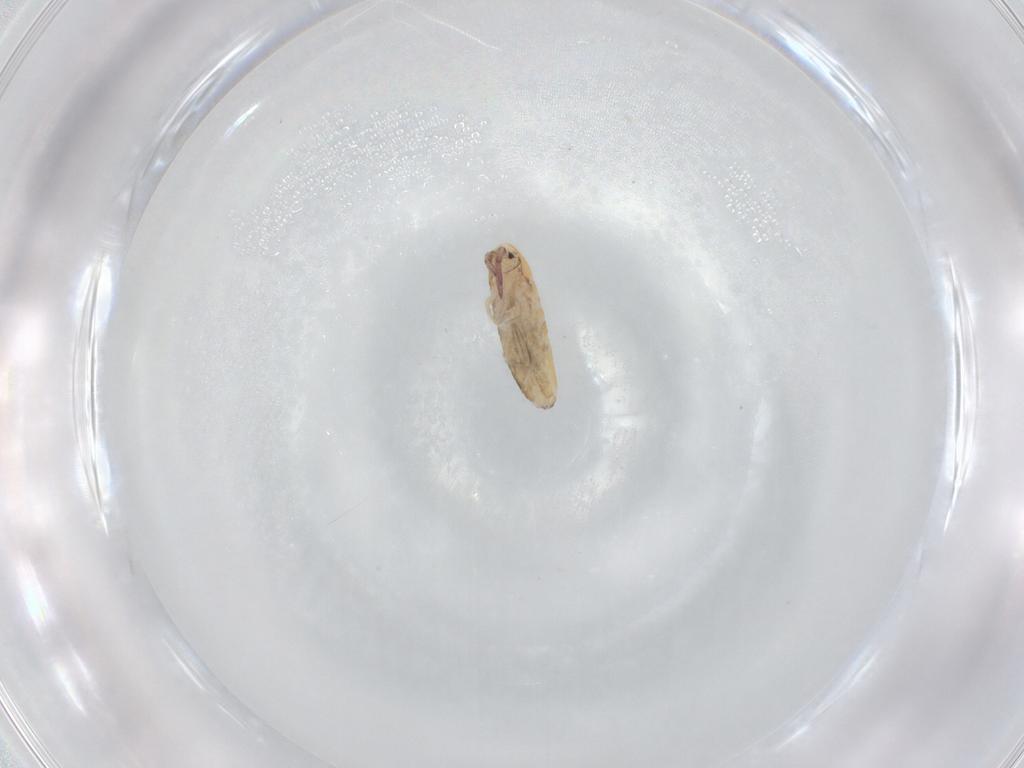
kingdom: Animalia
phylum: Arthropoda
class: Collembola
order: Entomobryomorpha
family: Entomobryidae
